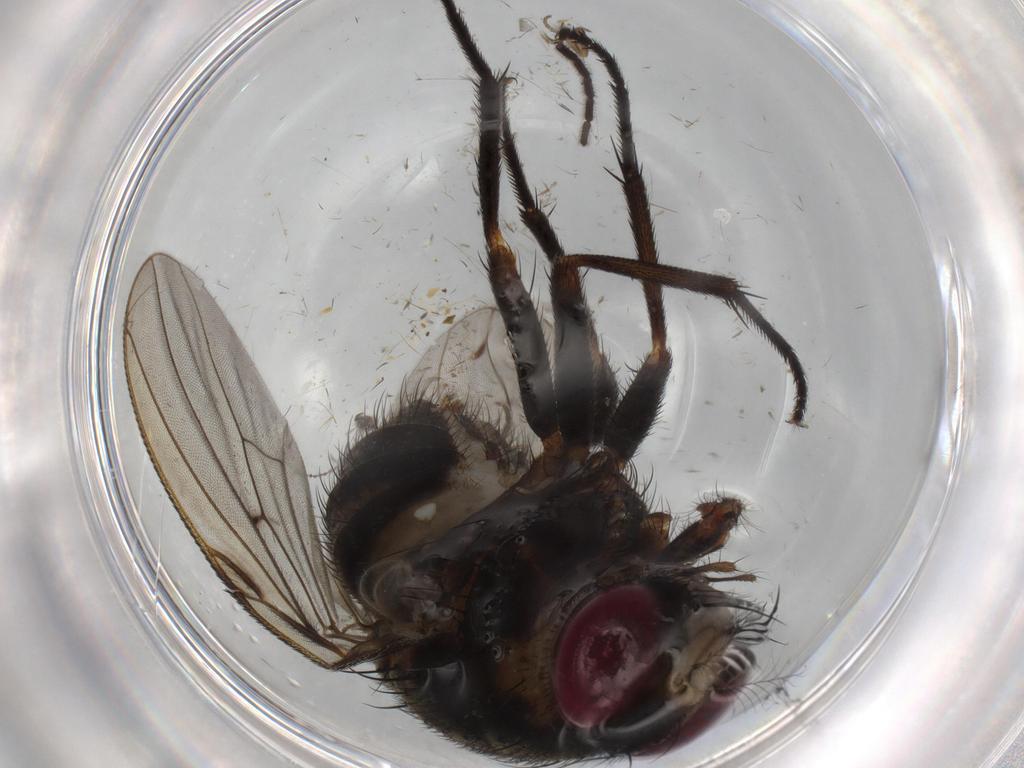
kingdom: Animalia
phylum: Arthropoda
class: Insecta
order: Diptera
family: Muscidae
